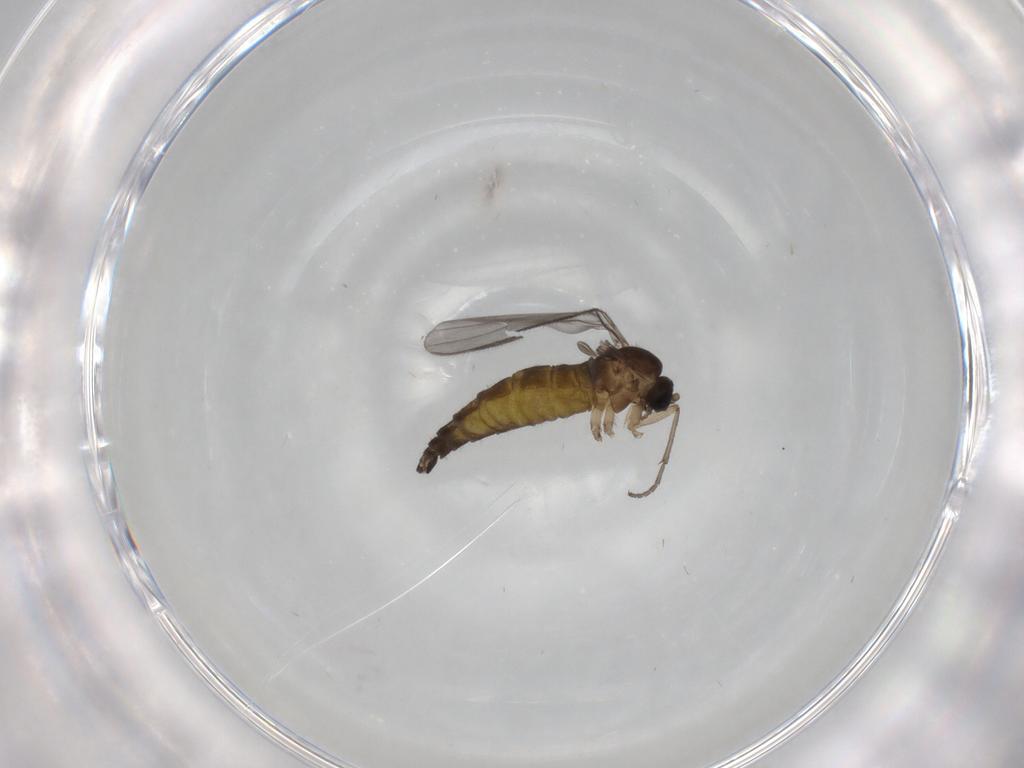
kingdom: Animalia
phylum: Arthropoda
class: Insecta
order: Diptera
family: Sciaridae
